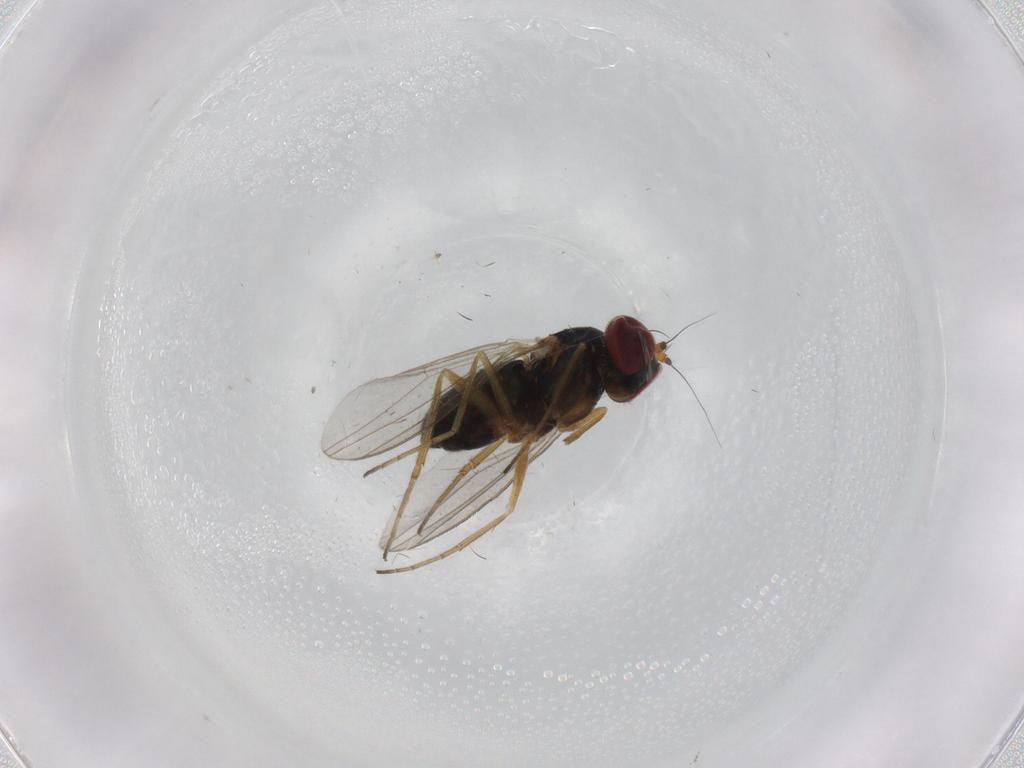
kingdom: Animalia
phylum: Arthropoda
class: Insecta
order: Diptera
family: Dolichopodidae
